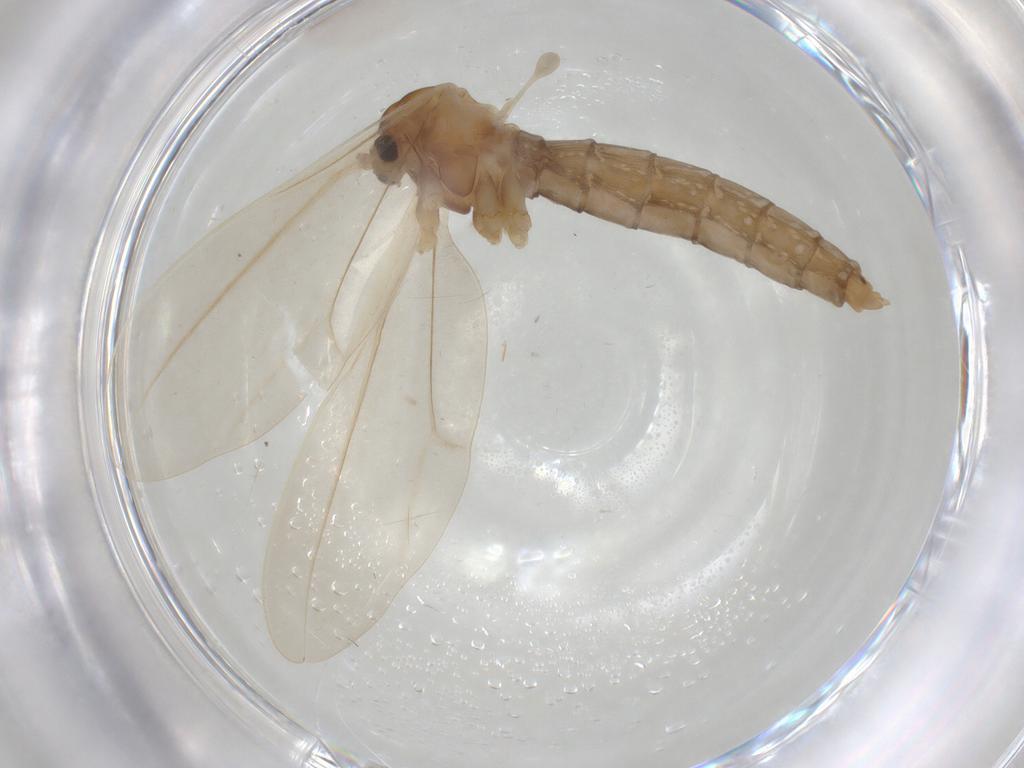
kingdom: Animalia
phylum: Arthropoda
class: Insecta
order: Diptera
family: Cecidomyiidae
